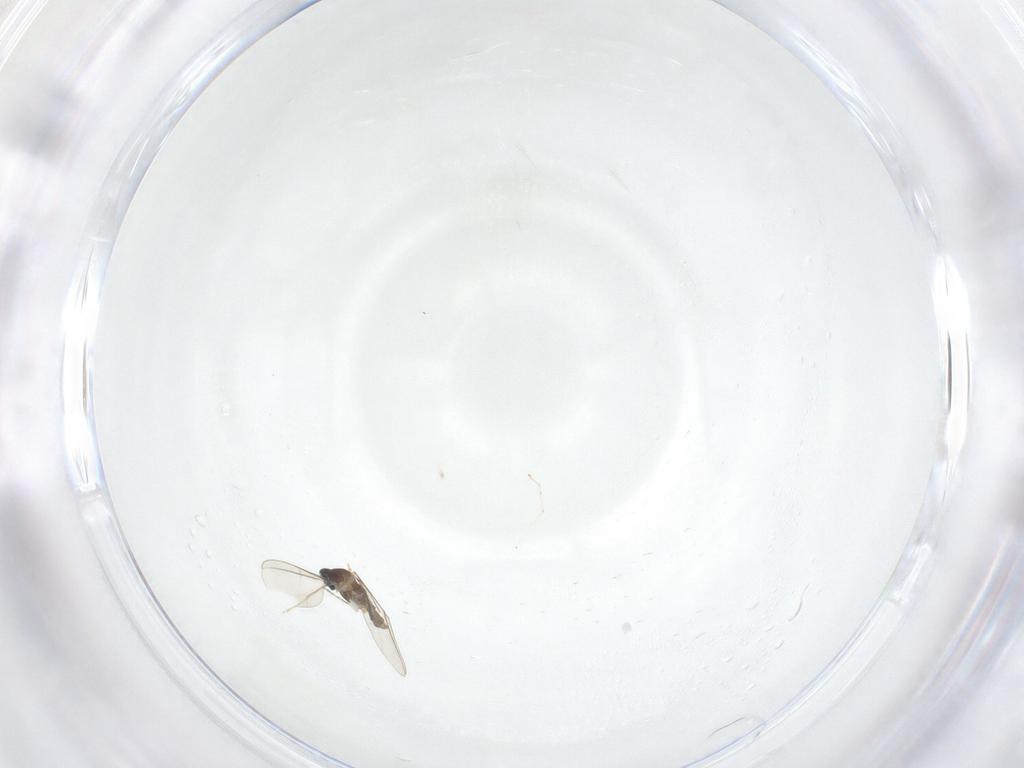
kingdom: Animalia
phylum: Arthropoda
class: Insecta
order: Diptera
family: Cecidomyiidae
